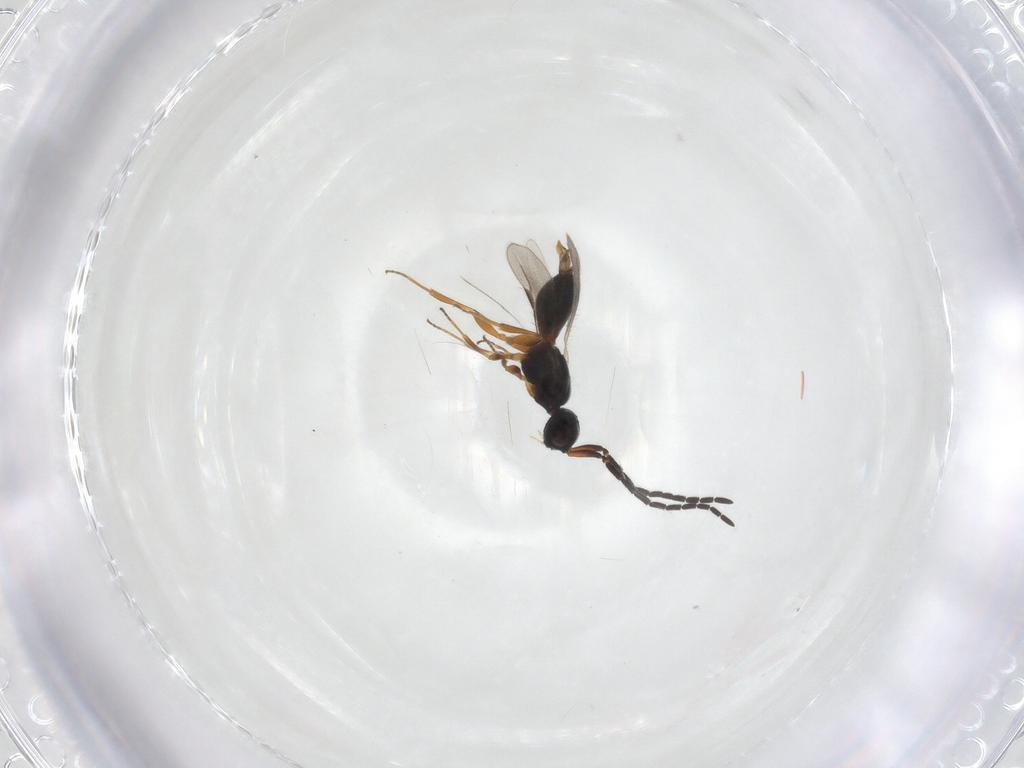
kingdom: Animalia
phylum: Arthropoda
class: Insecta
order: Hymenoptera
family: Megaspilidae
